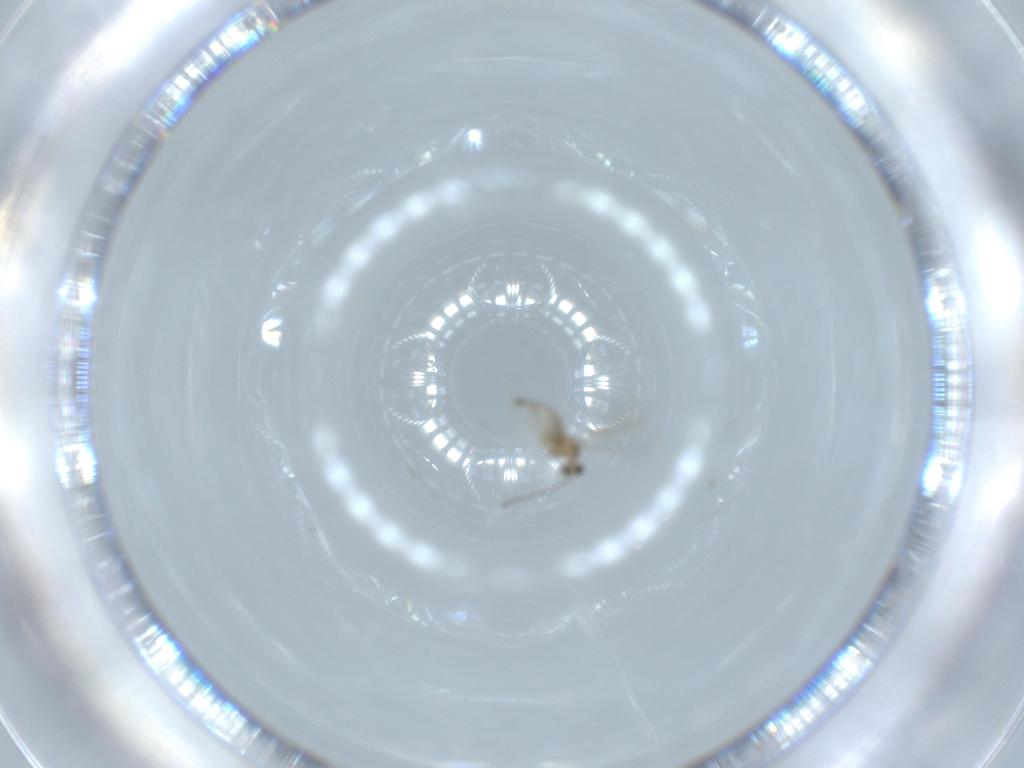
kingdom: Animalia
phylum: Arthropoda
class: Insecta
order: Diptera
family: Cecidomyiidae
